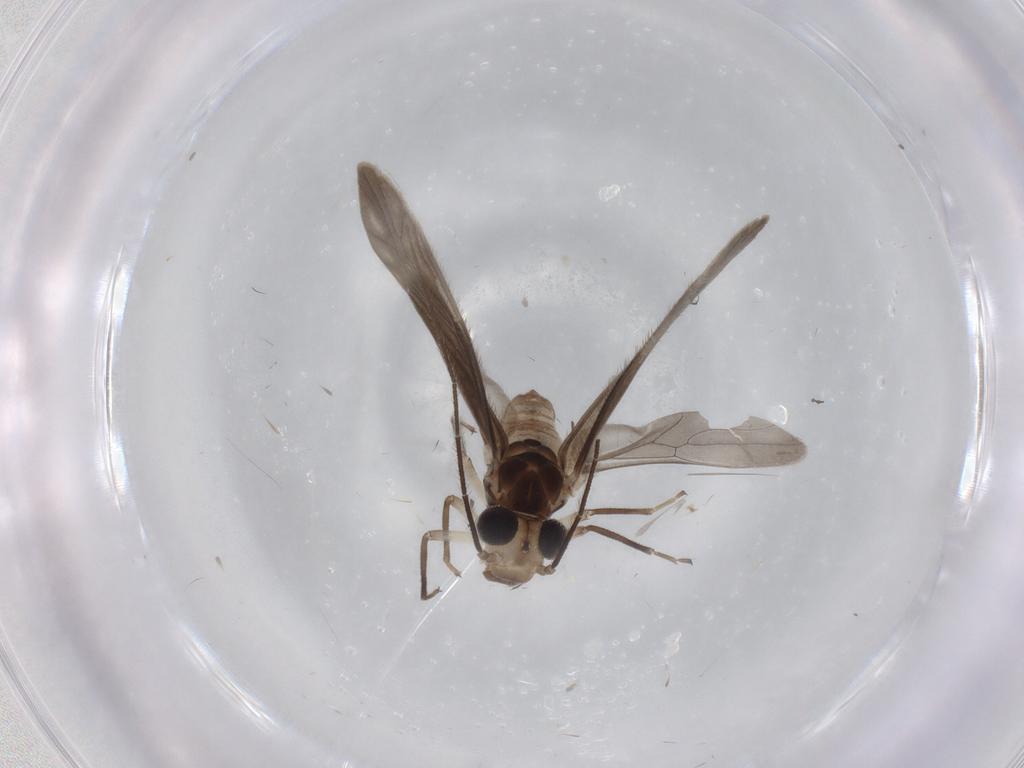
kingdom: Animalia
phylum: Arthropoda
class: Insecta
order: Psocodea
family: Caeciliusidae
